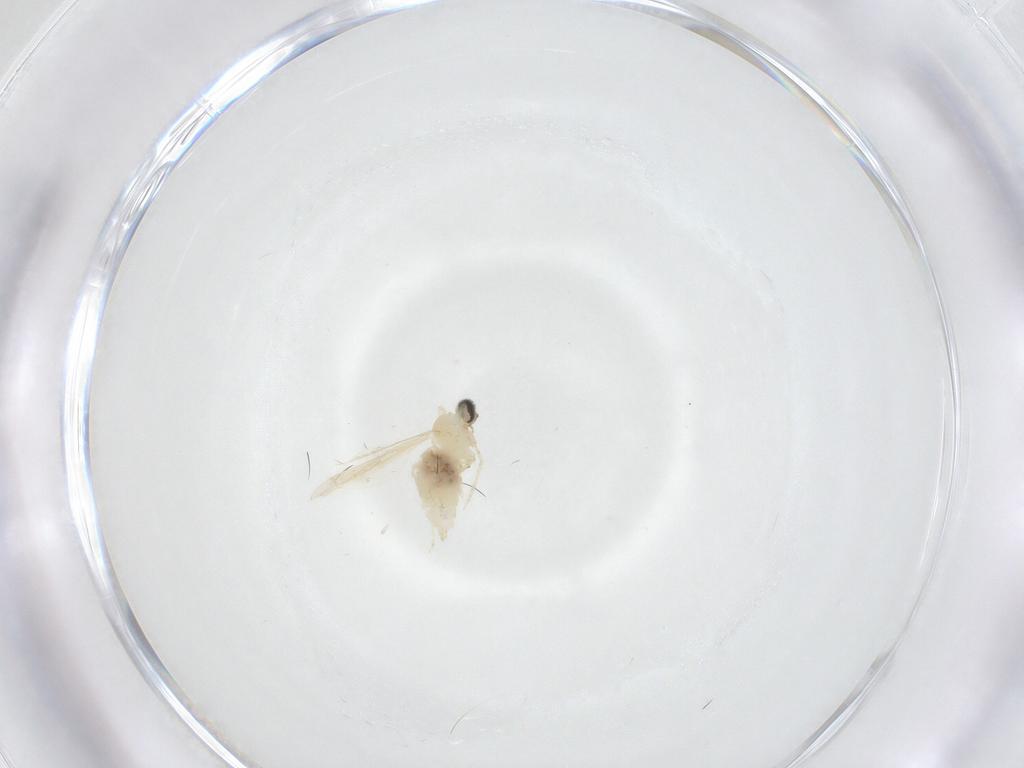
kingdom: Animalia
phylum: Arthropoda
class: Insecta
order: Diptera
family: Cecidomyiidae
